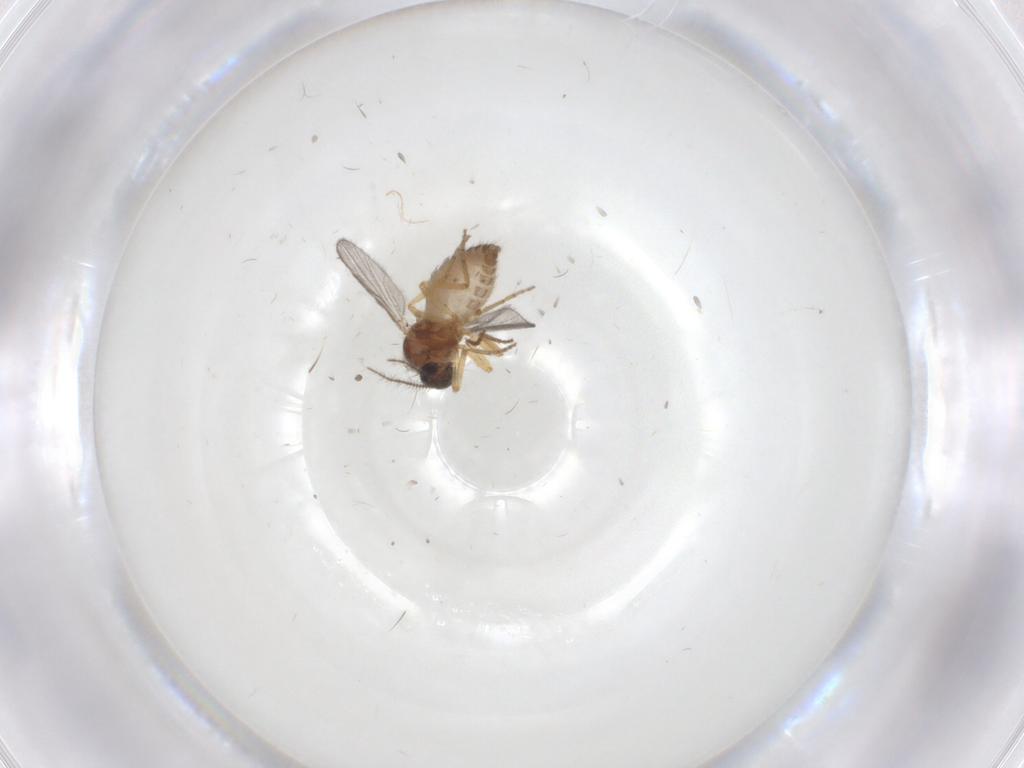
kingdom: Animalia
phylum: Arthropoda
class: Insecta
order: Diptera
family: Ceratopogonidae
